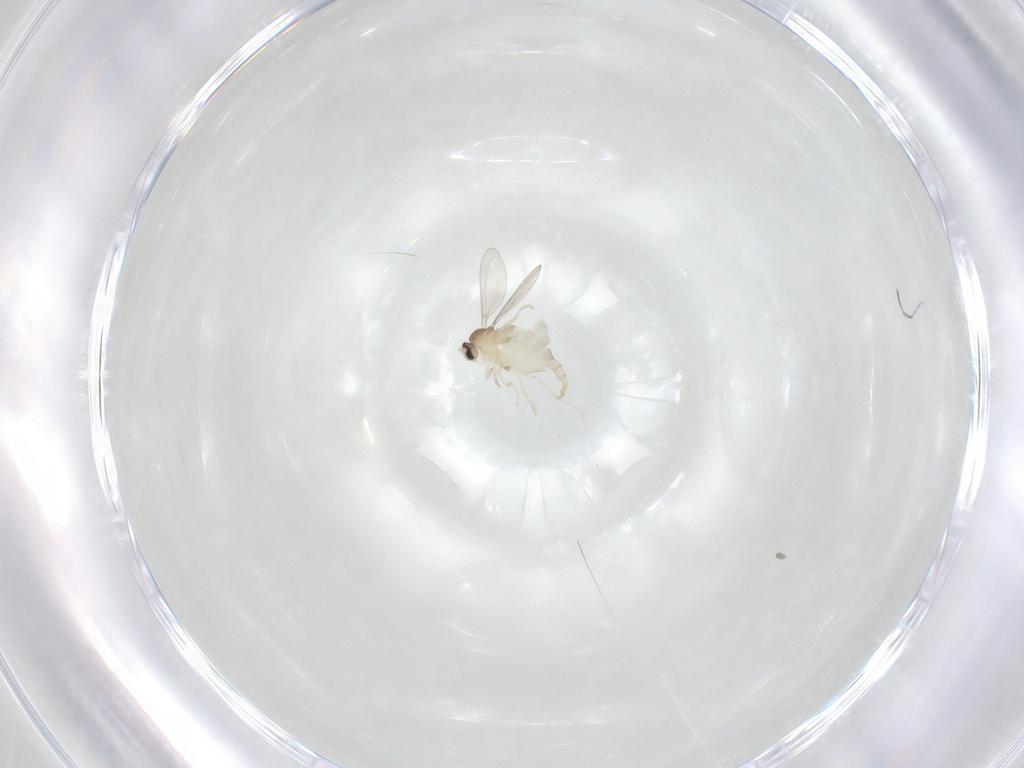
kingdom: Animalia
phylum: Arthropoda
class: Insecta
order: Diptera
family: Cecidomyiidae
